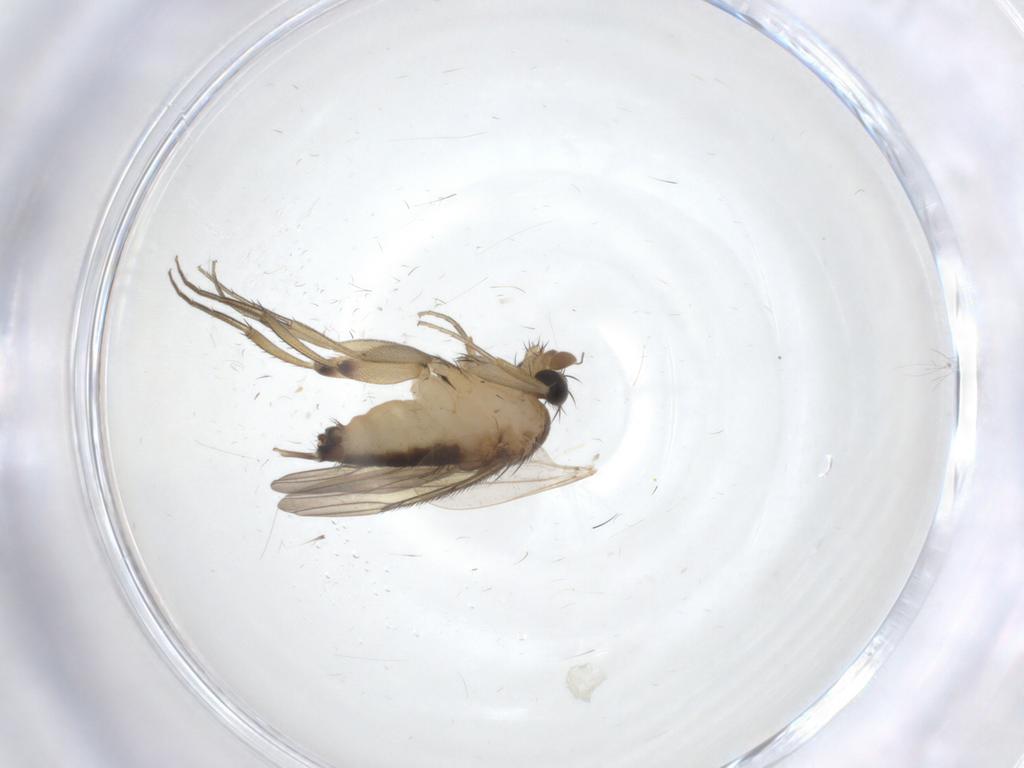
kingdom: Animalia
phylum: Arthropoda
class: Insecta
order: Diptera
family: Phoridae
